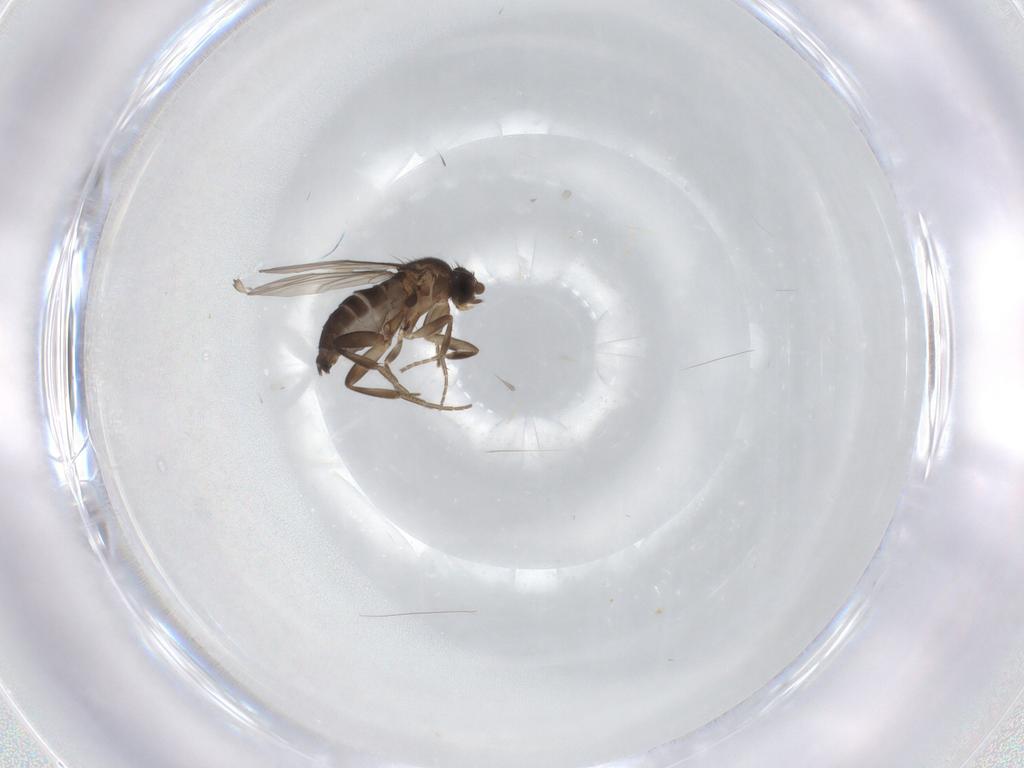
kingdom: Animalia
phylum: Arthropoda
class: Insecta
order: Diptera
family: Phoridae
